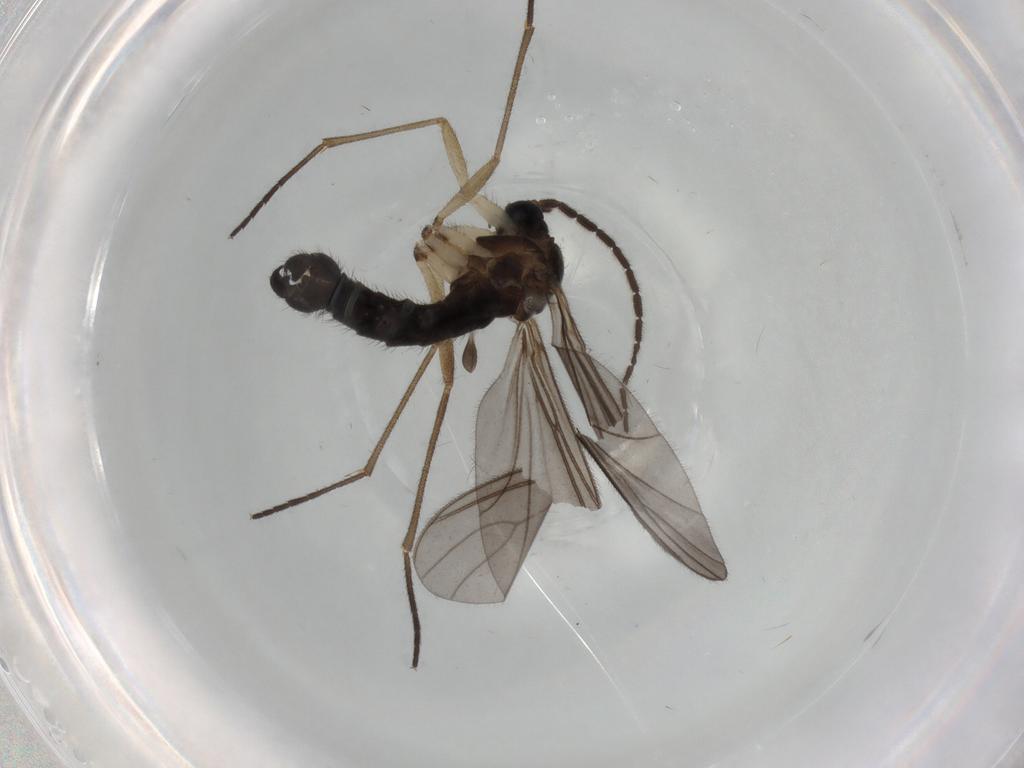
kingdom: Animalia
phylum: Arthropoda
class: Insecta
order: Diptera
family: Sciaridae
